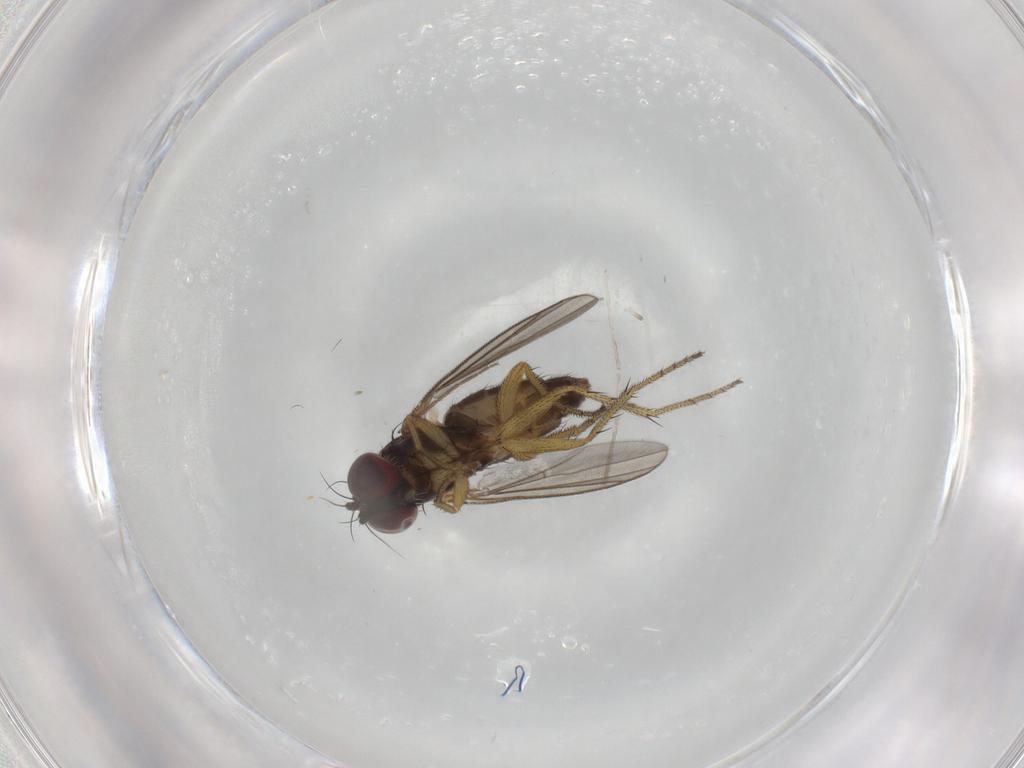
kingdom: Animalia
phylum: Arthropoda
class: Insecta
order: Diptera
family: Dolichopodidae
